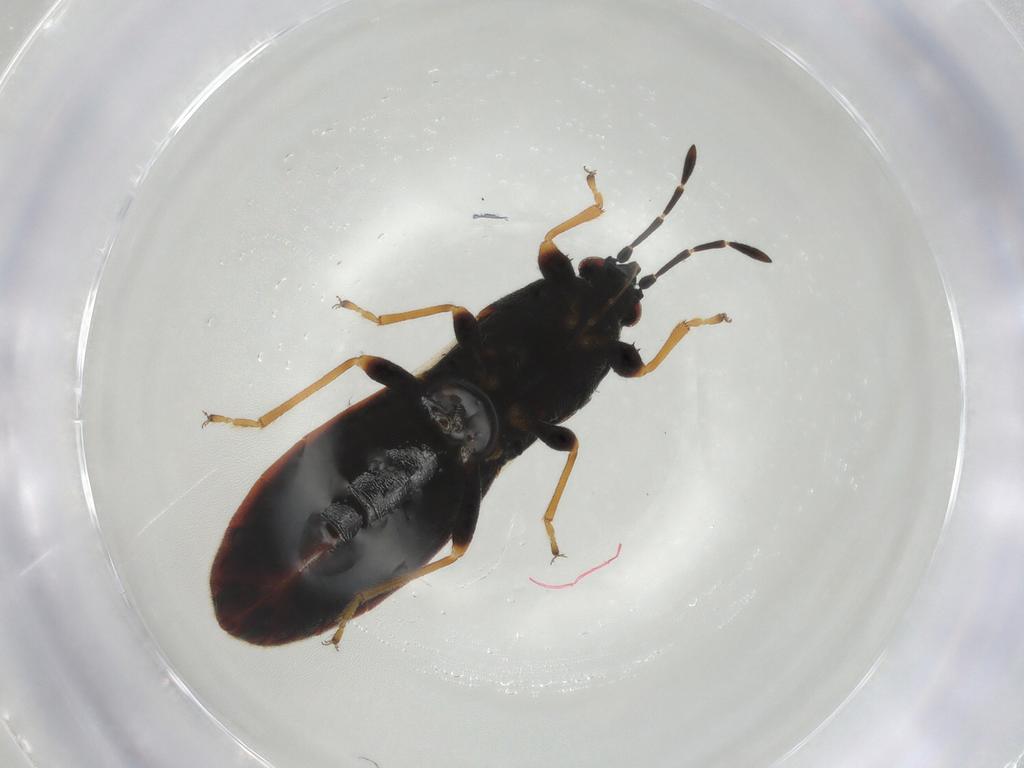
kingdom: Animalia
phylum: Arthropoda
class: Insecta
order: Hemiptera
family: Blissidae
